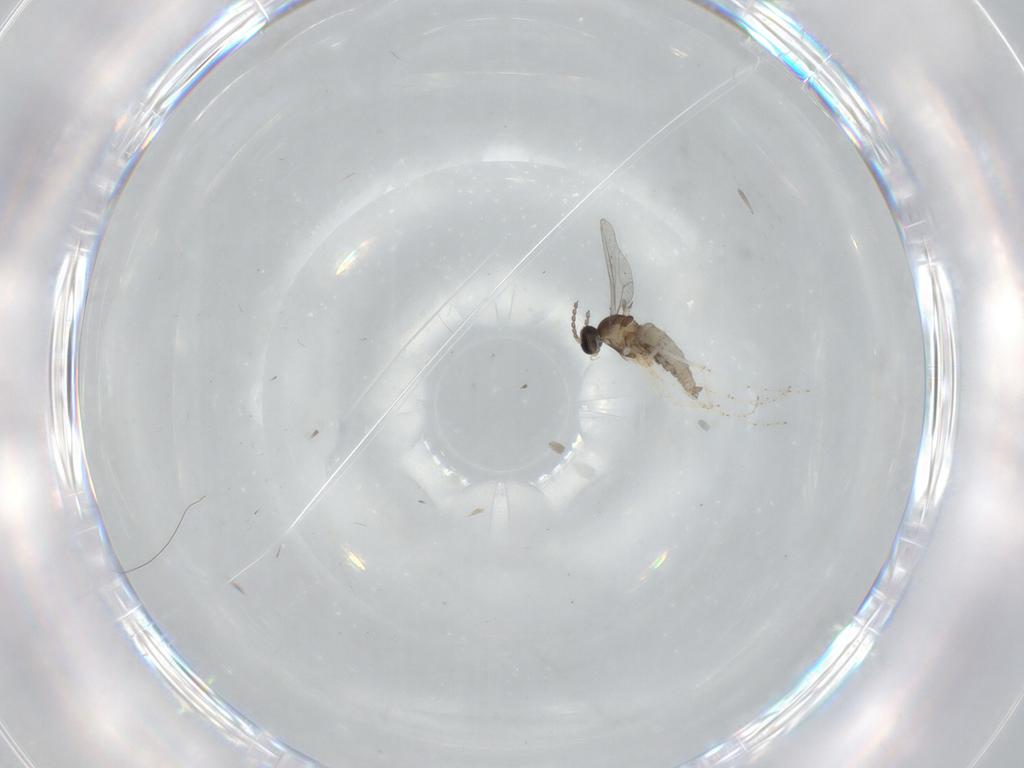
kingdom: Animalia
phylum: Arthropoda
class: Insecta
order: Diptera
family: Cecidomyiidae
